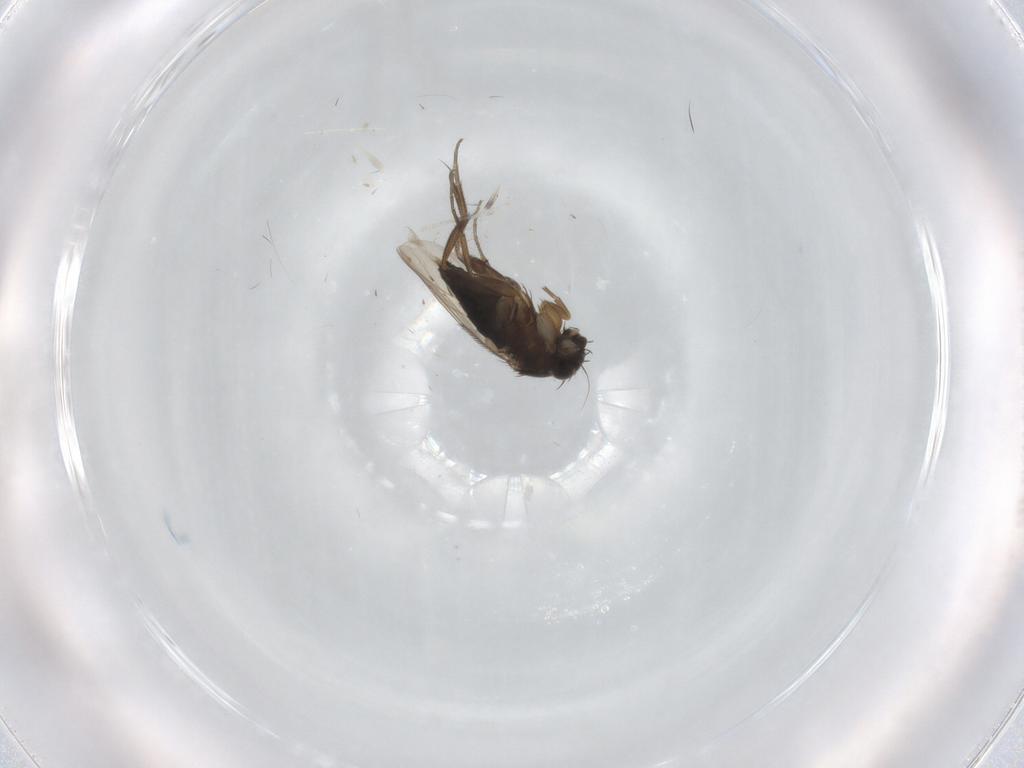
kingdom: Animalia
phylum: Arthropoda
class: Insecta
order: Diptera
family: Phoridae
